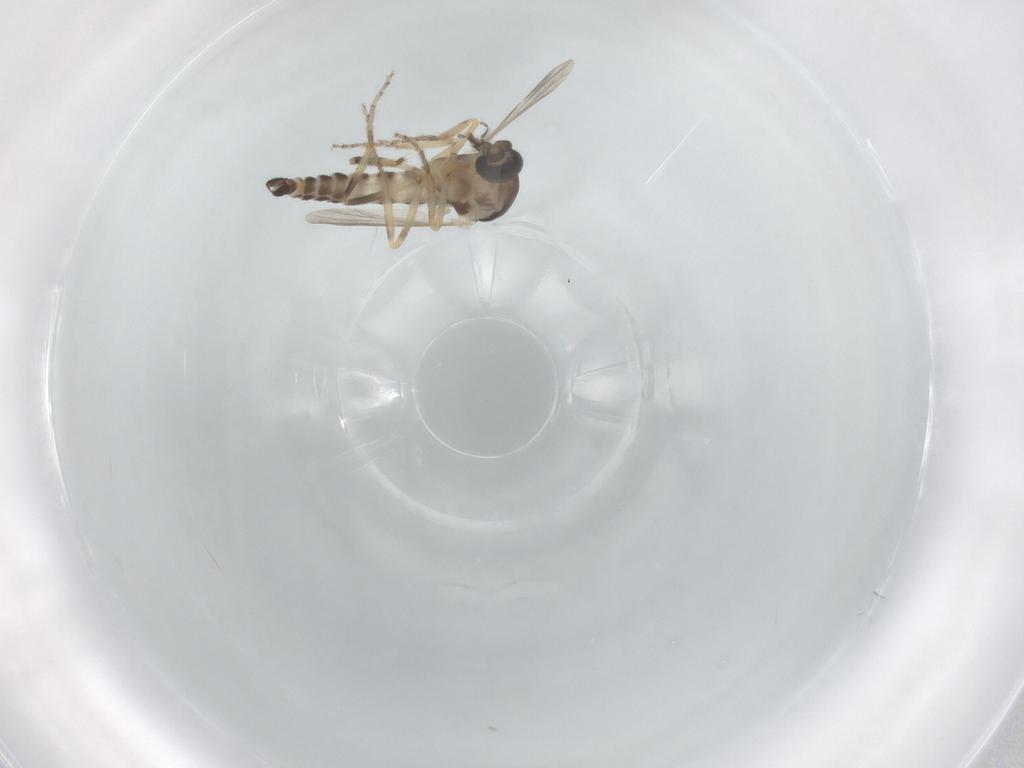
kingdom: Animalia
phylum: Arthropoda
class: Insecta
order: Diptera
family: Ceratopogonidae
